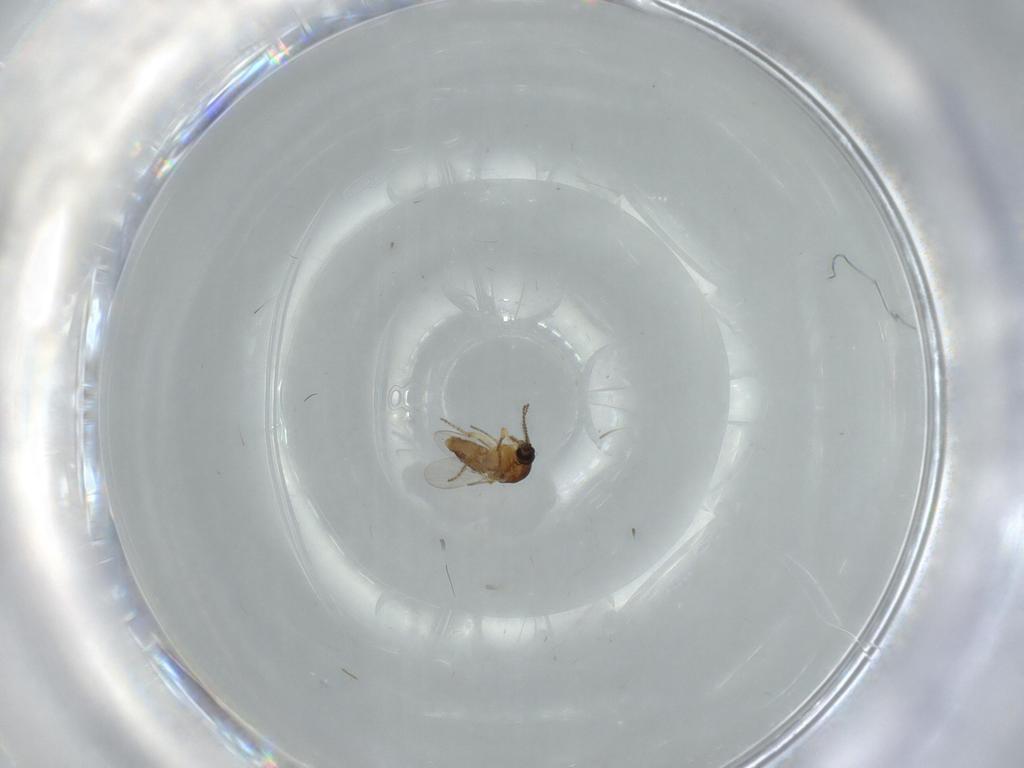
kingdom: Animalia
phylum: Arthropoda
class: Insecta
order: Diptera
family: Ceratopogonidae
